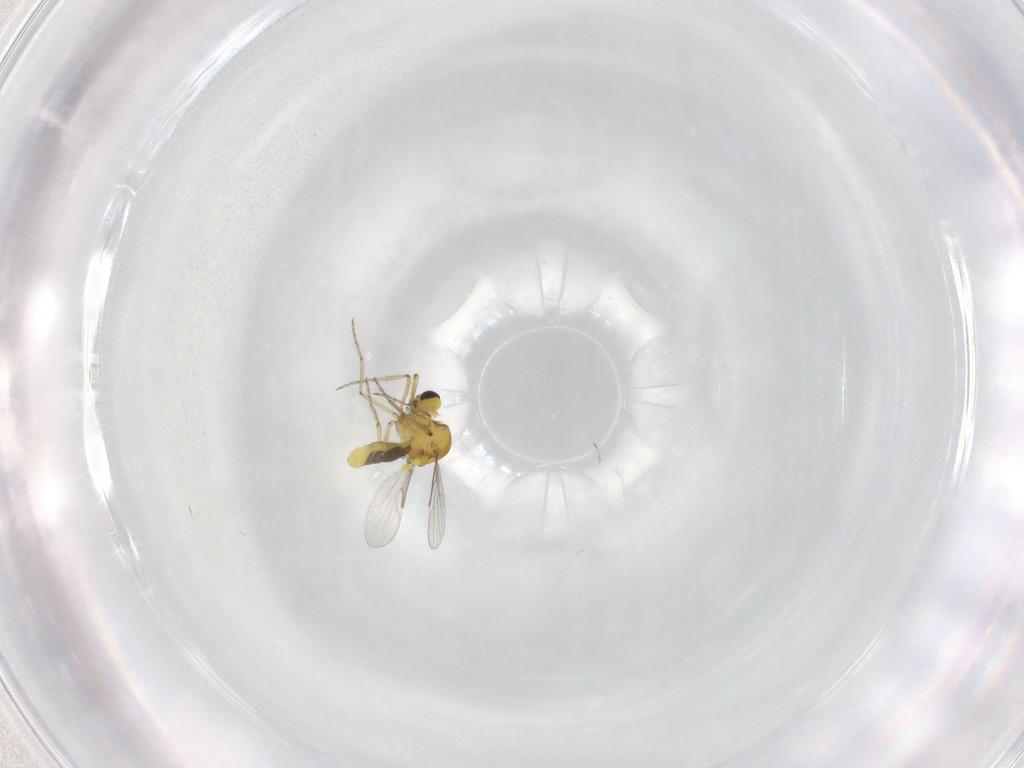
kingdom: Animalia
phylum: Arthropoda
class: Insecta
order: Diptera
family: Ceratopogonidae
